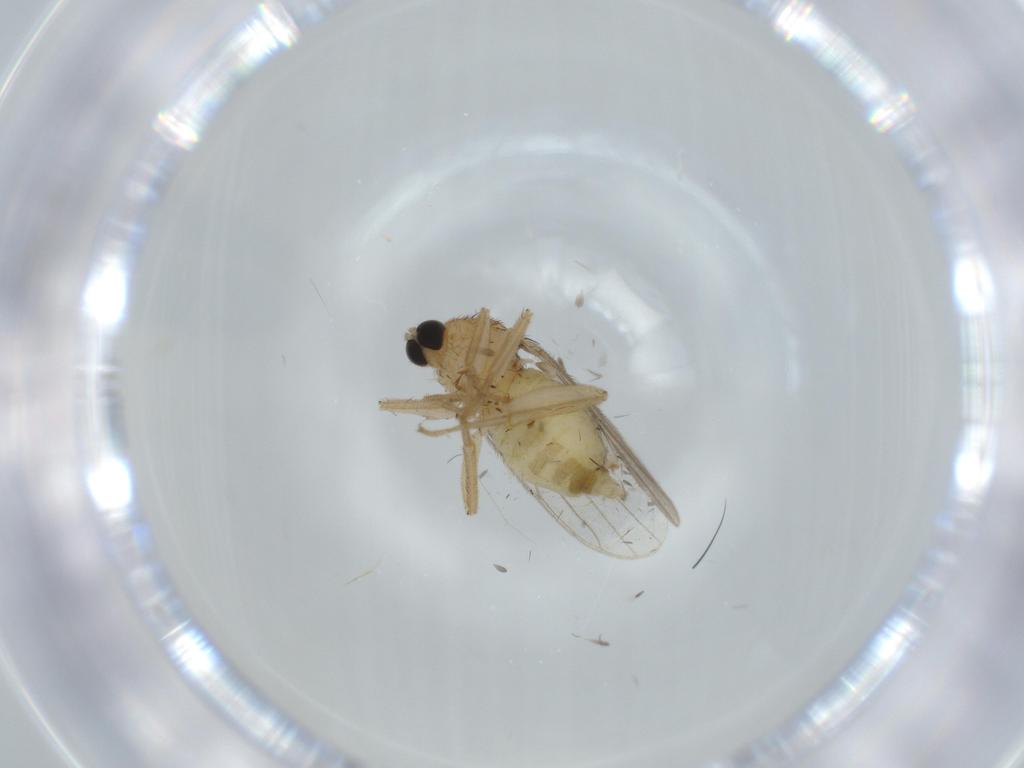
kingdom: Animalia
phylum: Arthropoda
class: Insecta
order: Diptera
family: Hybotidae
